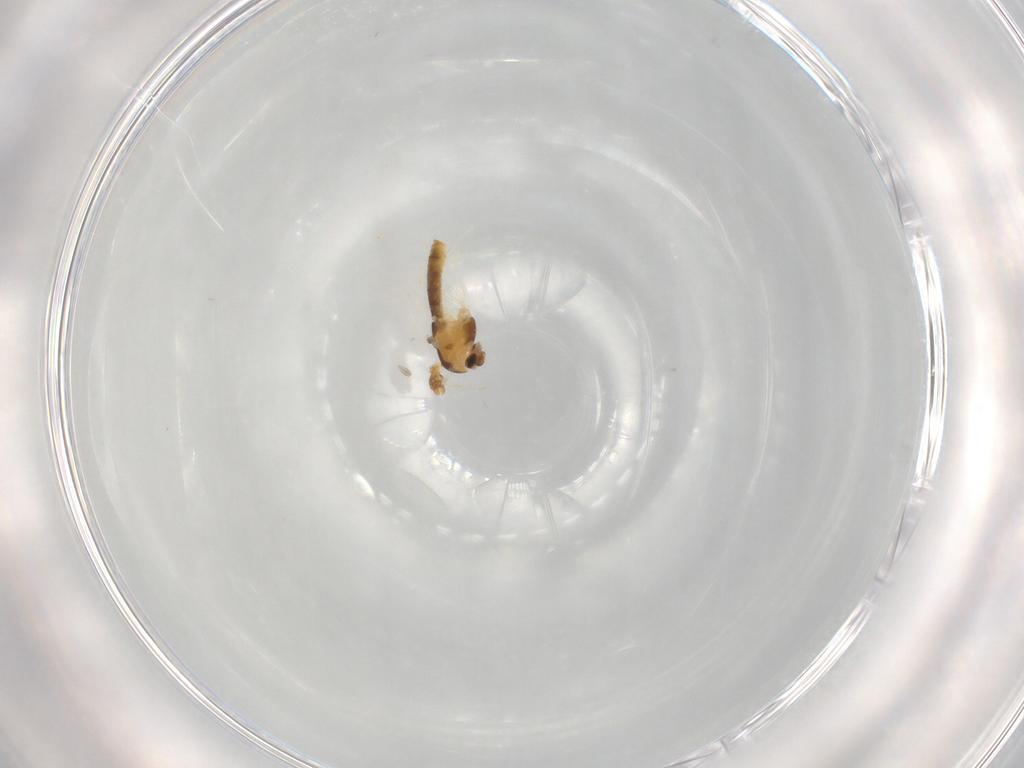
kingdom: Animalia
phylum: Arthropoda
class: Insecta
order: Diptera
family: Chironomidae
